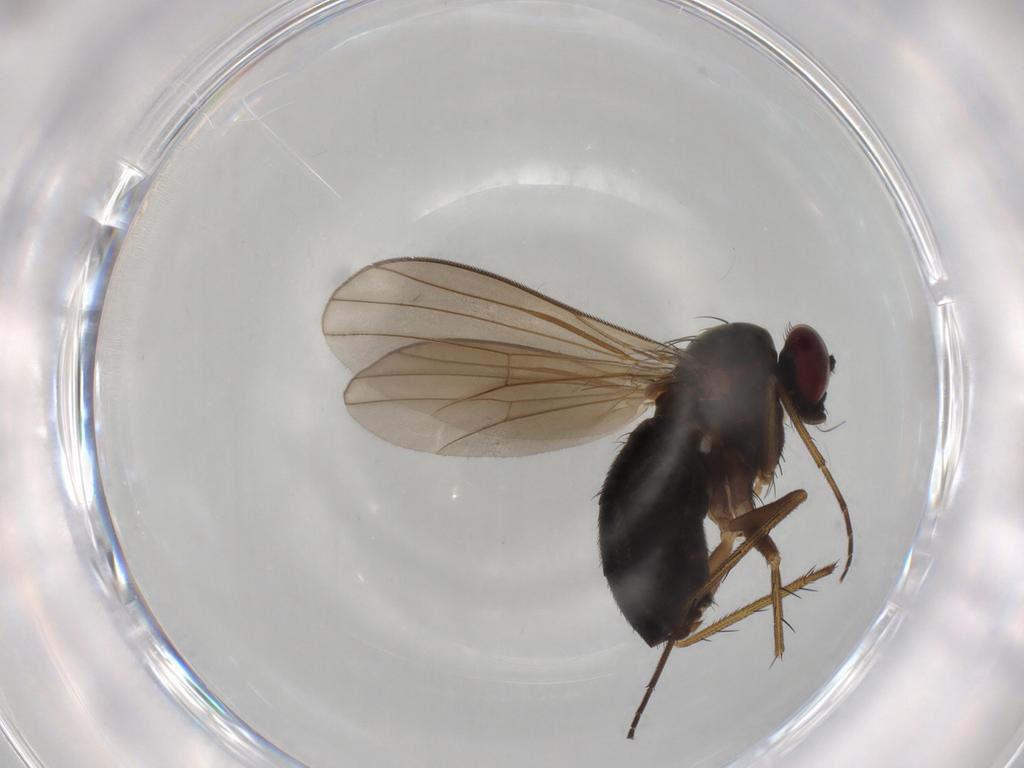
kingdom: Animalia
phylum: Arthropoda
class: Insecta
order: Diptera
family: Dolichopodidae
